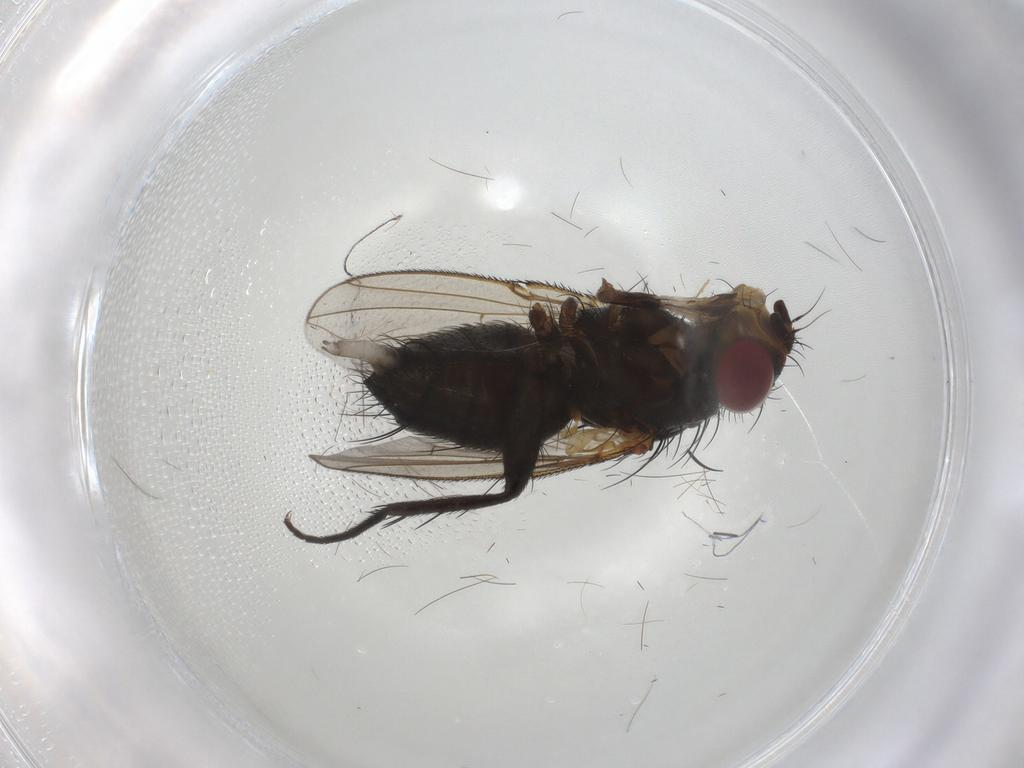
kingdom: Animalia
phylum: Arthropoda
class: Insecta
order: Diptera
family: Calliphoridae
